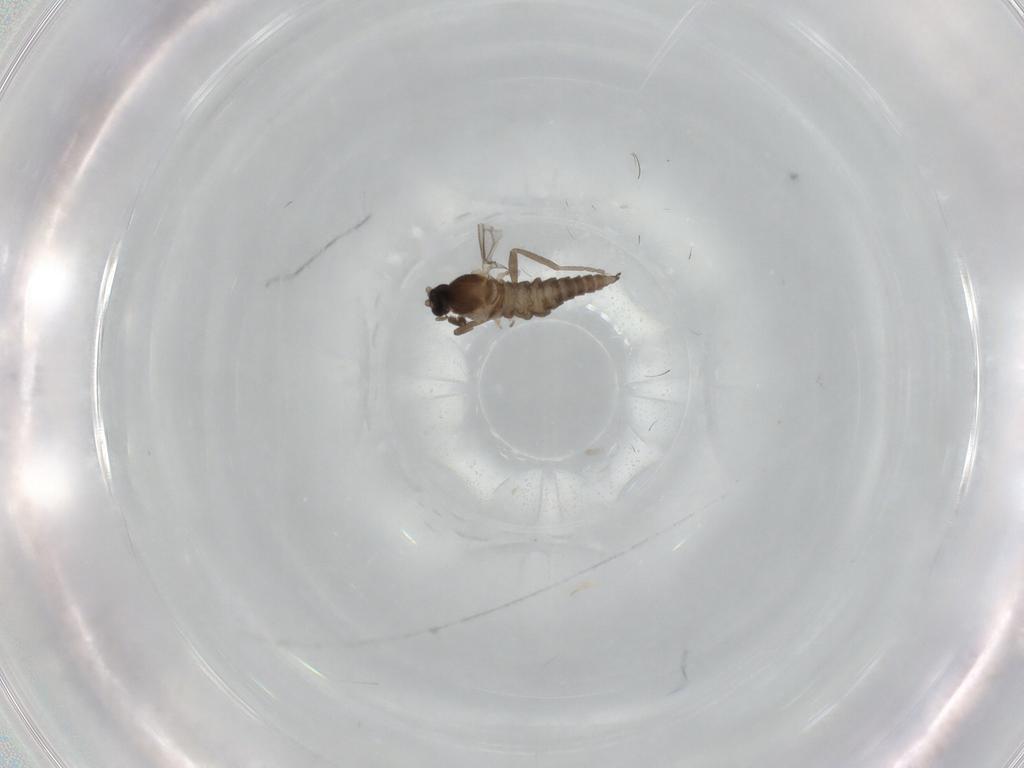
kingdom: Animalia
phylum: Arthropoda
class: Insecta
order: Diptera
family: Cecidomyiidae
